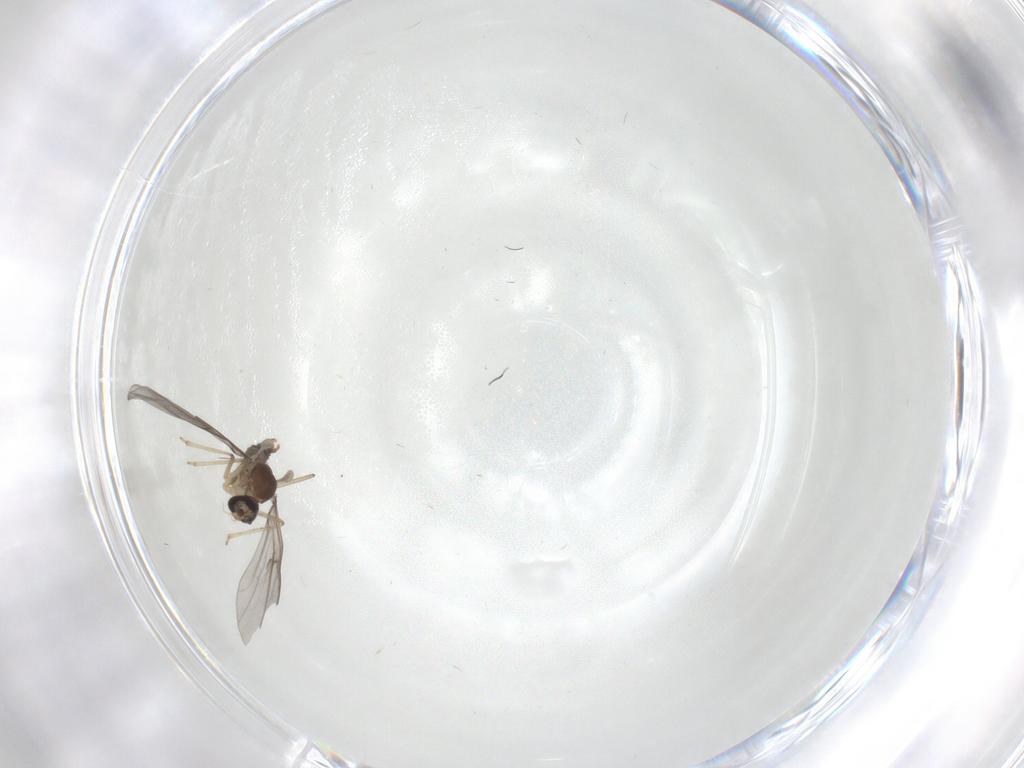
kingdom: Animalia
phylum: Arthropoda
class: Insecta
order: Diptera
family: Cecidomyiidae
